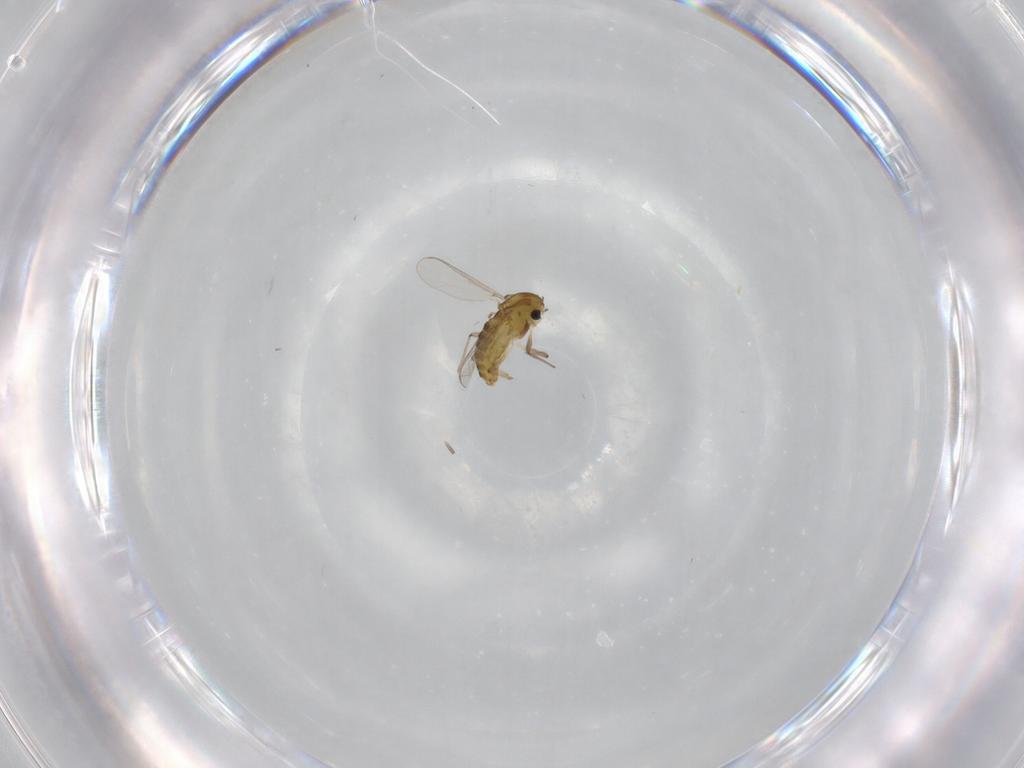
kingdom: Animalia
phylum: Arthropoda
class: Insecta
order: Diptera
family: Chironomidae
